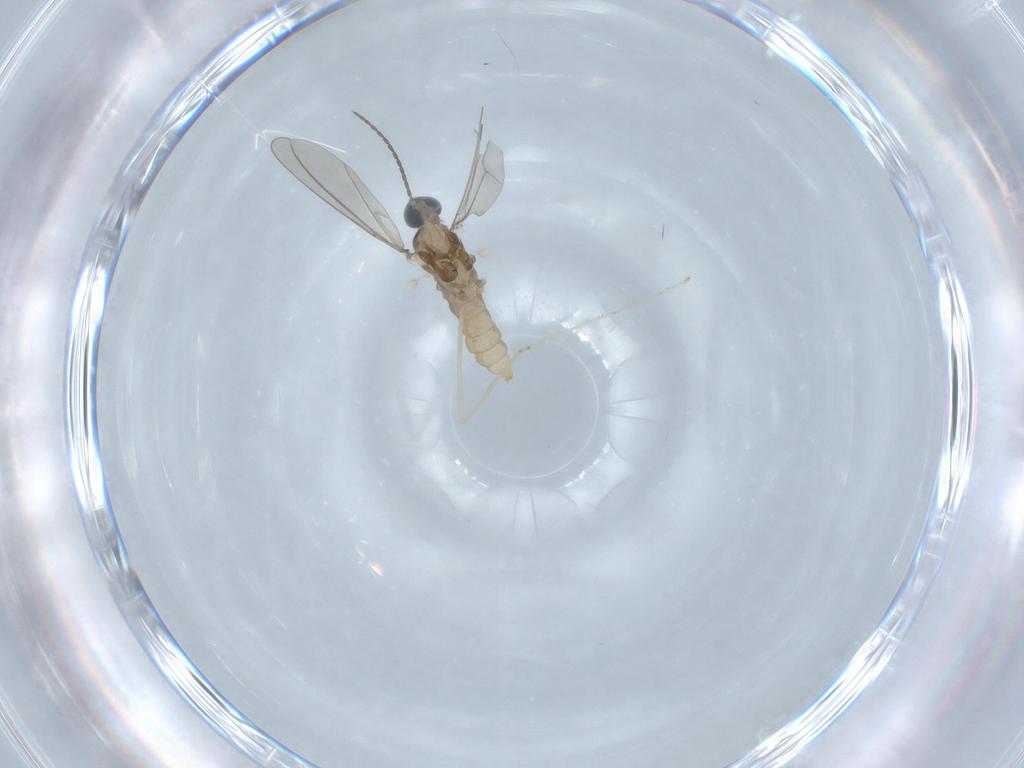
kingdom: Animalia
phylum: Arthropoda
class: Insecta
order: Diptera
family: Cecidomyiidae
